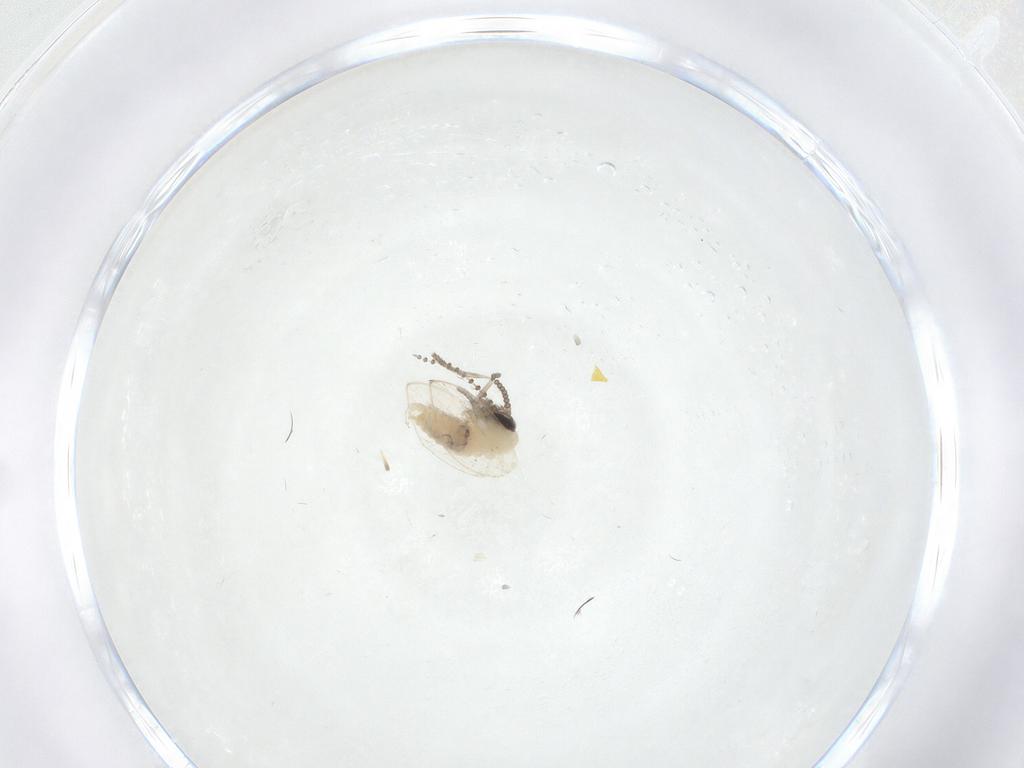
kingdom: Animalia
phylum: Arthropoda
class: Insecta
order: Diptera
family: Psychodidae
